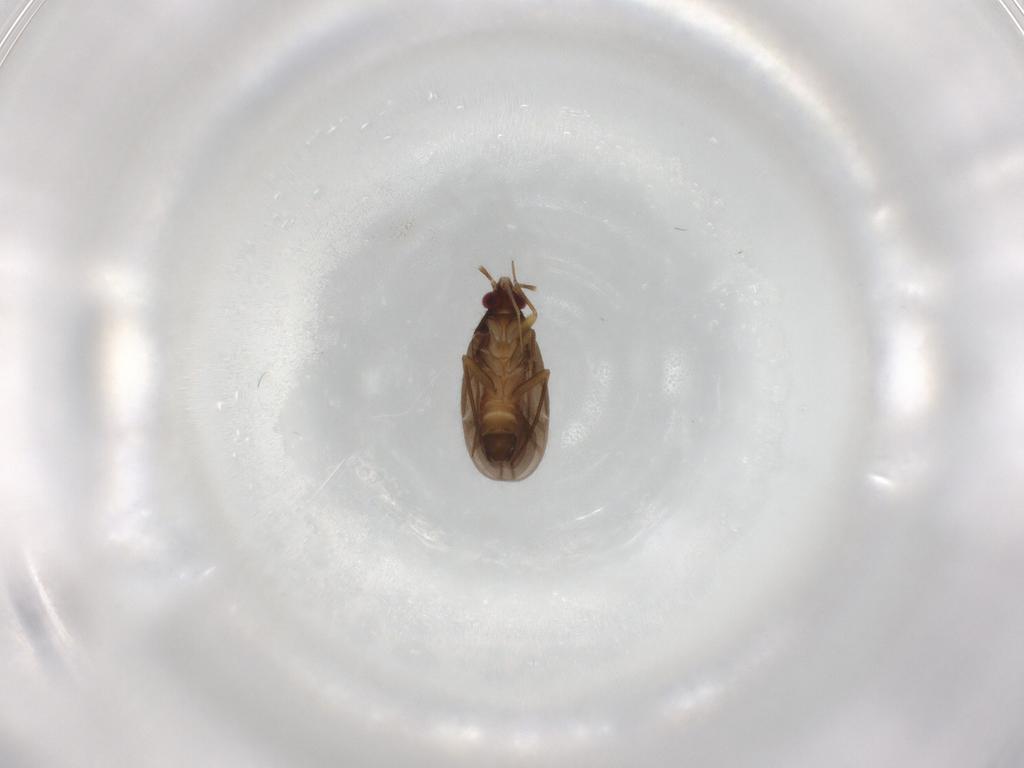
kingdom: Animalia
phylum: Arthropoda
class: Insecta
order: Hemiptera
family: Ceratocombidae
